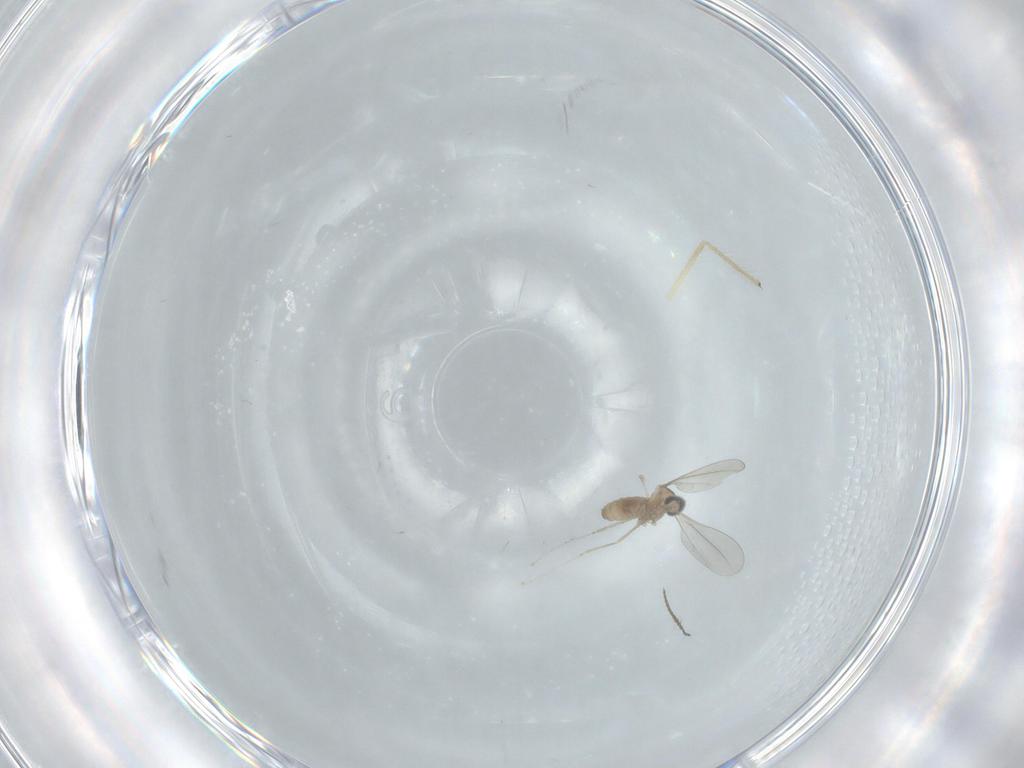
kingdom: Animalia
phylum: Arthropoda
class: Insecta
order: Diptera
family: Chironomidae
